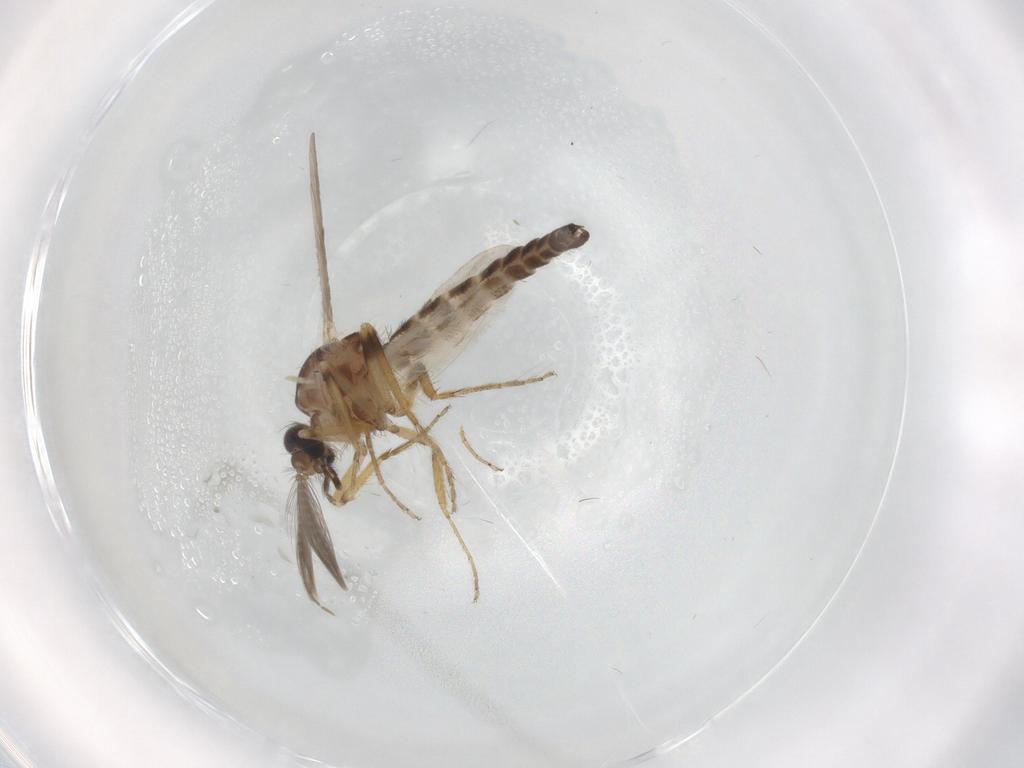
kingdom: Animalia
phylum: Arthropoda
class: Insecta
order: Diptera
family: Ceratopogonidae
